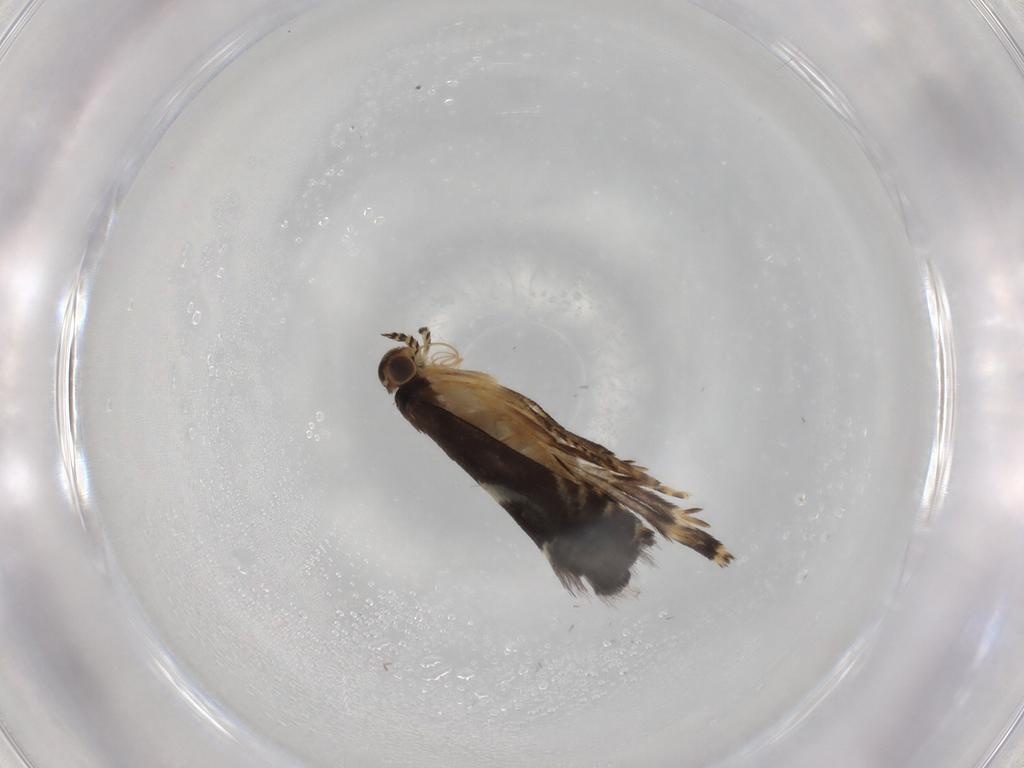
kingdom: Animalia
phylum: Arthropoda
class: Insecta
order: Lepidoptera
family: Glyphipterigidae
